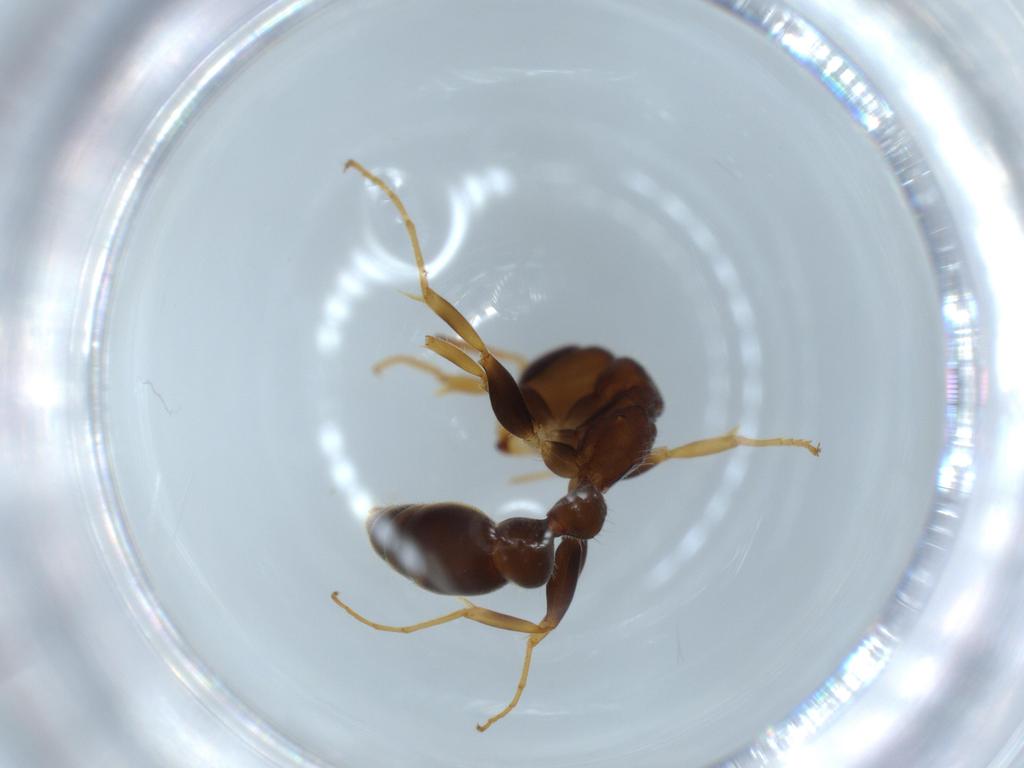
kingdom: Animalia
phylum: Arthropoda
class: Insecta
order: Hymenoptera
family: Formicidae
